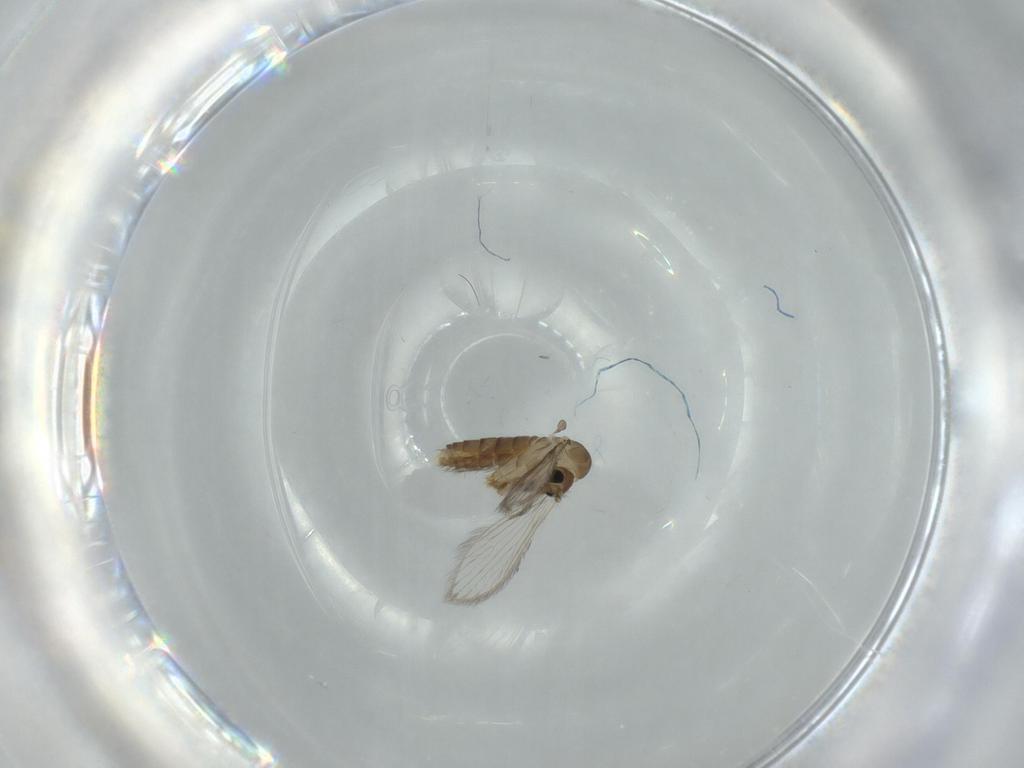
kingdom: Animalia
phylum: Arthropoda
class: Insecta
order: Diptera
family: Psychodidae
